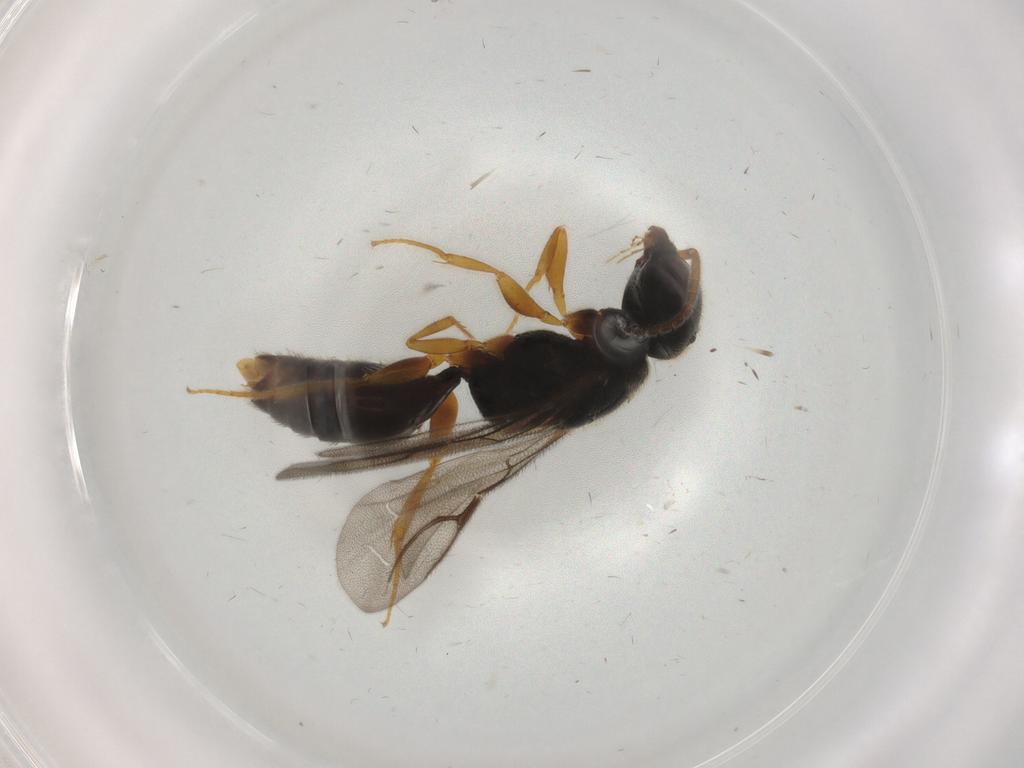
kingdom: Animalia
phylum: Arthropoda
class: Insecta
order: Hymenoptera
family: Bethylidae
